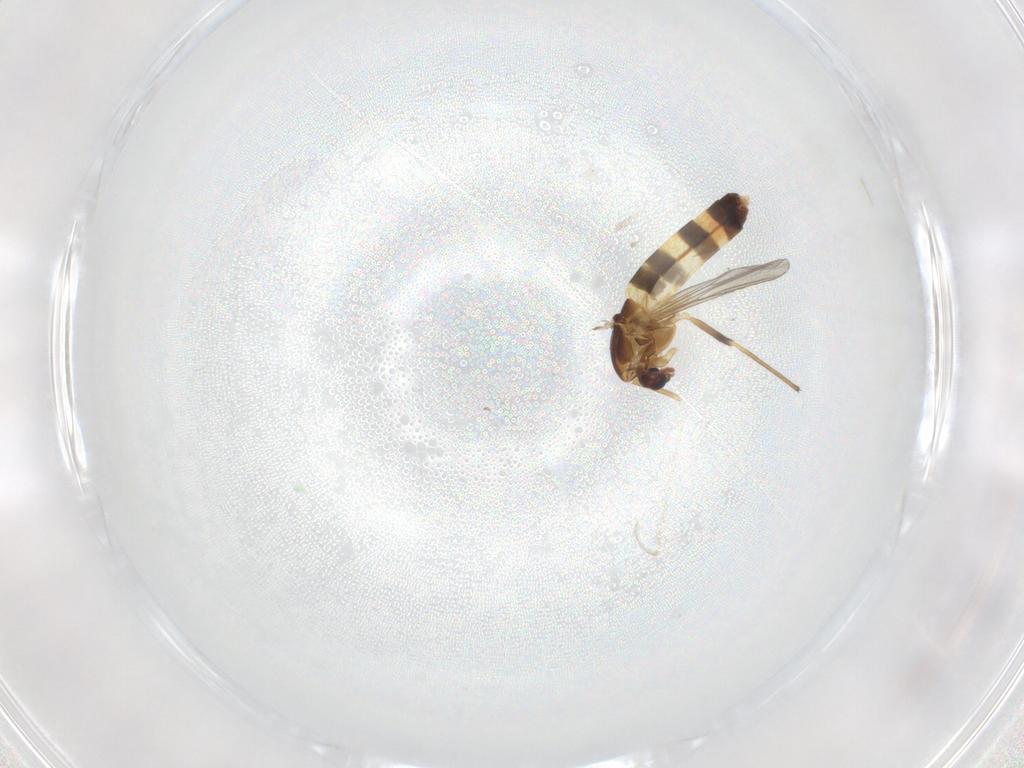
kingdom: Animalia
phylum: Arthropoda
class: Insecta
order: Diptera
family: Chironomidae
